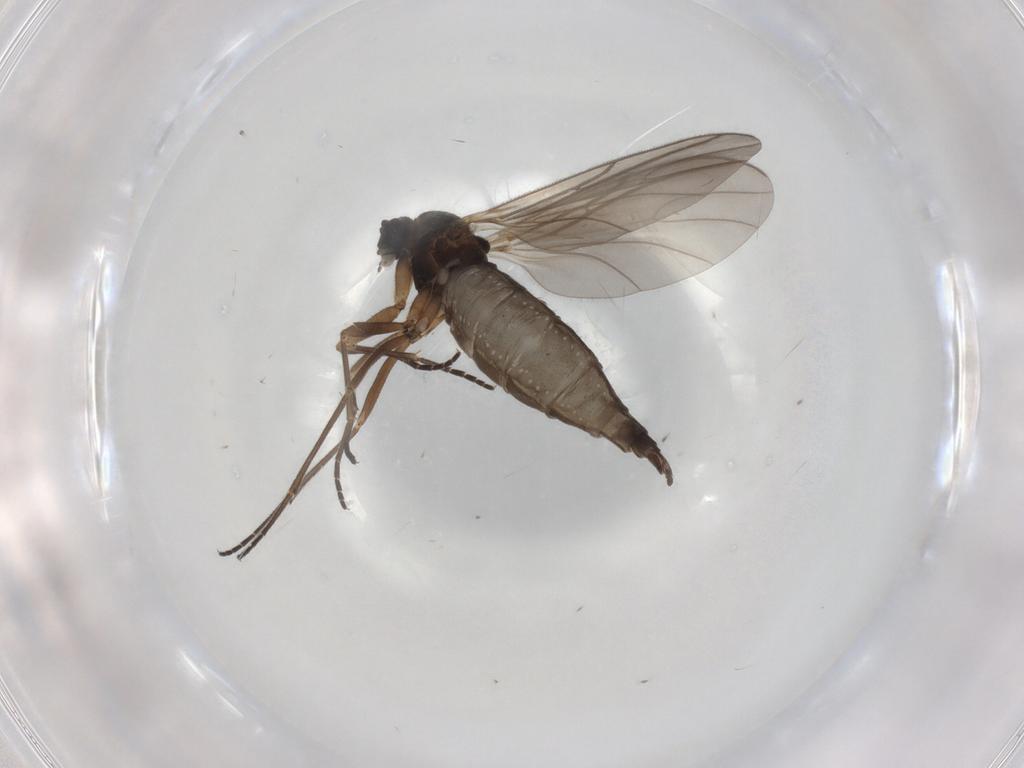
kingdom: Animalia
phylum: Arthropoda
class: Insecta
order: Diptera
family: Sciaridae
